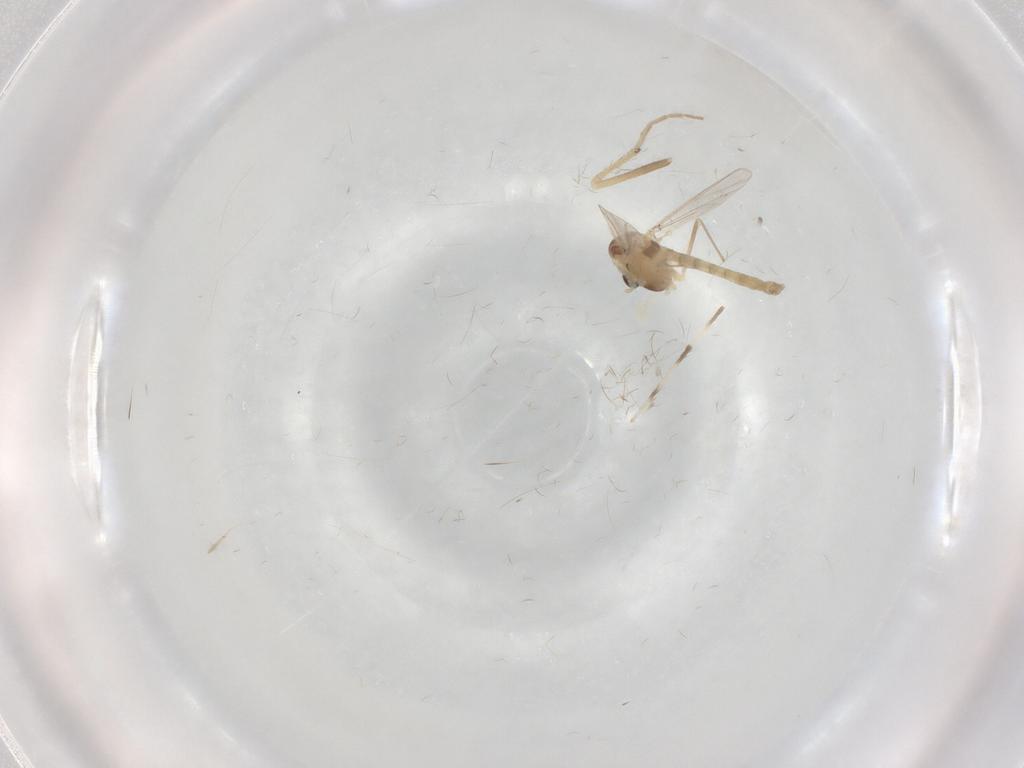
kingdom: Animalia
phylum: Arthropoda
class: Insecta
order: Diptera
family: Chironomidae
